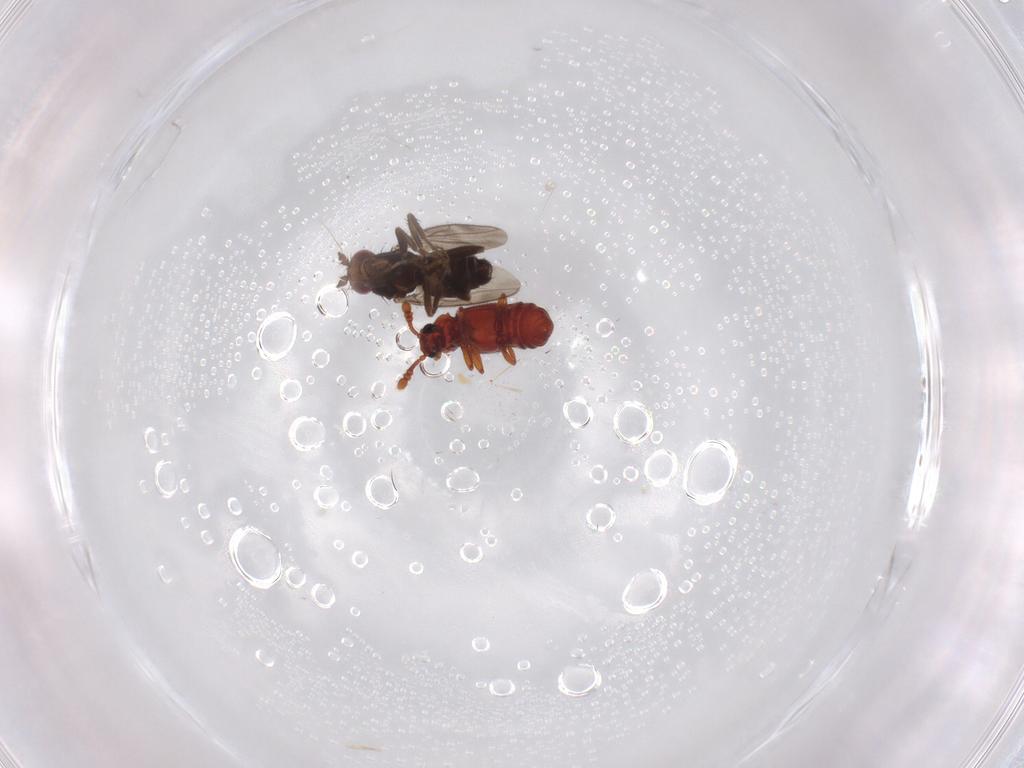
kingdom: Animalia
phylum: Arthropoda
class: Insecta
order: Diptera
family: Sphaeroceridae
